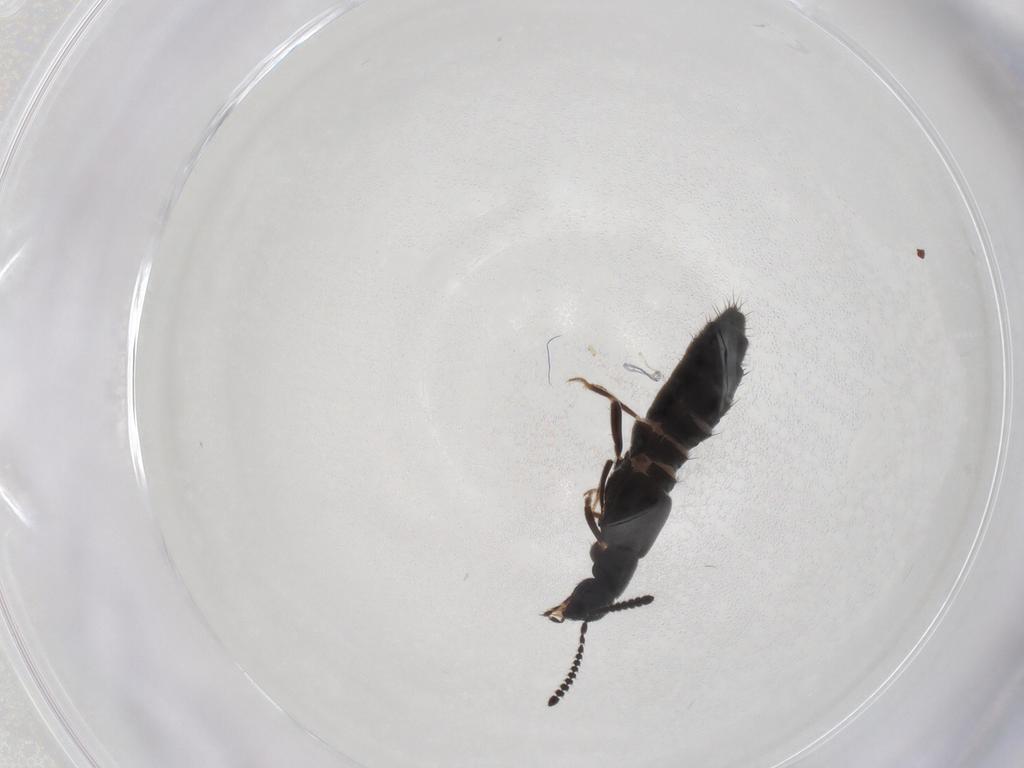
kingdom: Animalia
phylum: Arthropoda
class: Insecta
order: Coleoptera
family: Staphylinidae
